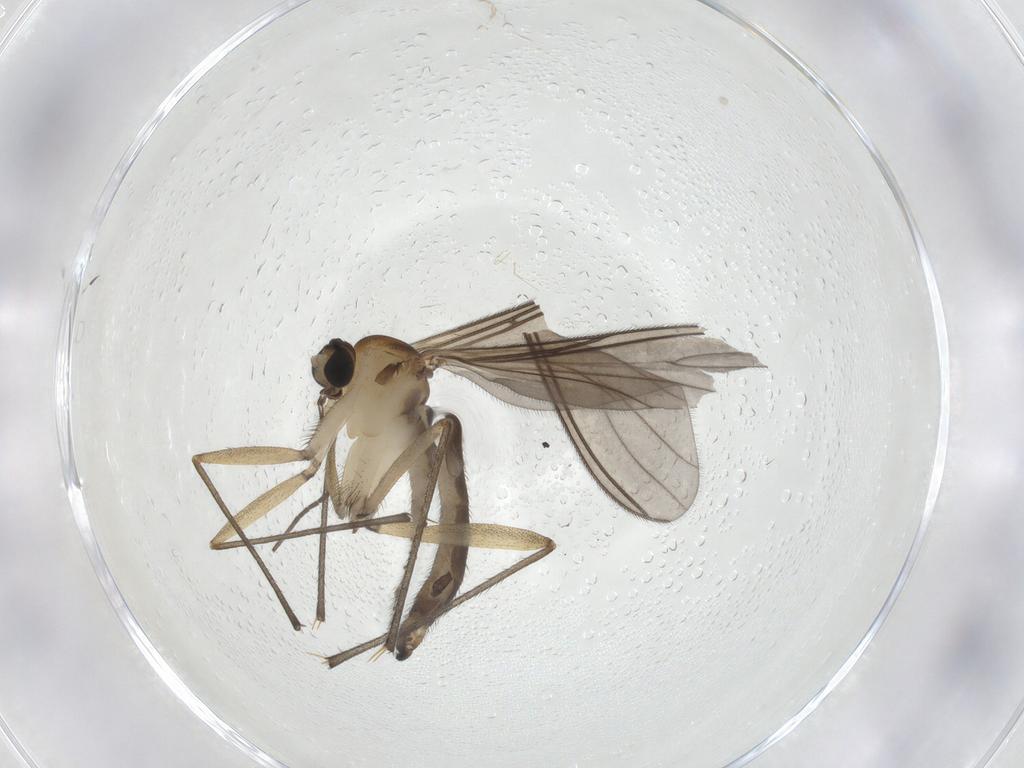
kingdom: Animalia
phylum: Arthropoda
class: Insecta
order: Diptera
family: Sciaridae
